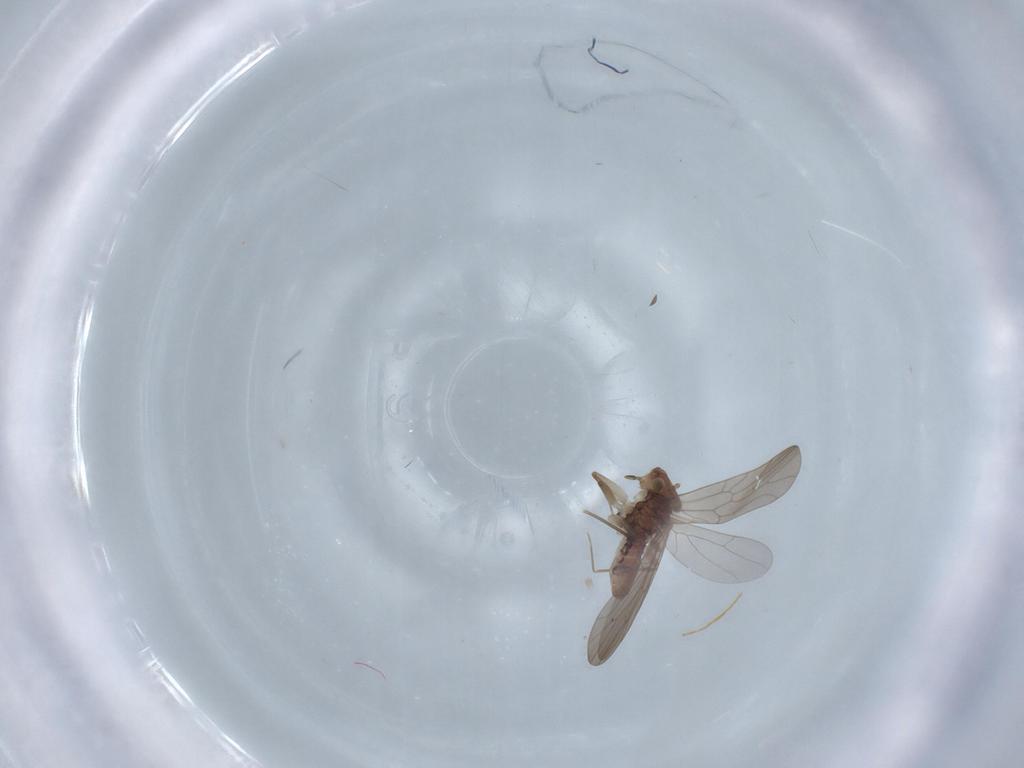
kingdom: Animalia
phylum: Arthropoda
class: Insecta
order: Psocodea
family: Lepidopsocidae
